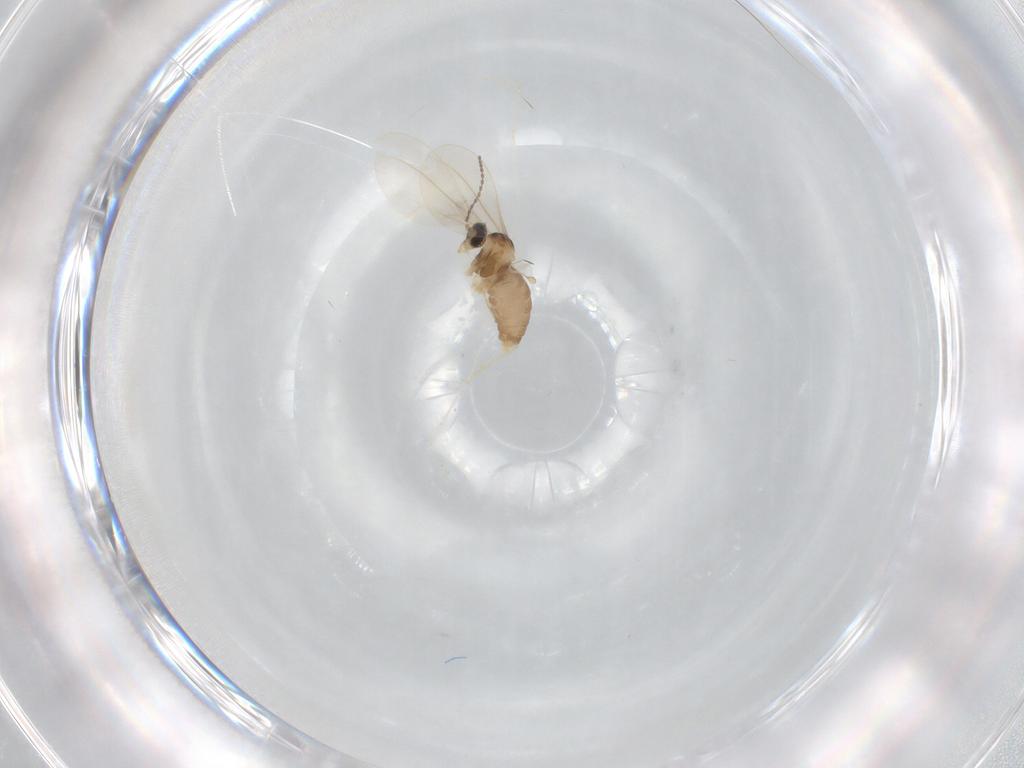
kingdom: Animalia
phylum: Arthropoda
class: Insecta
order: Diptera
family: Cecidomyiidae
